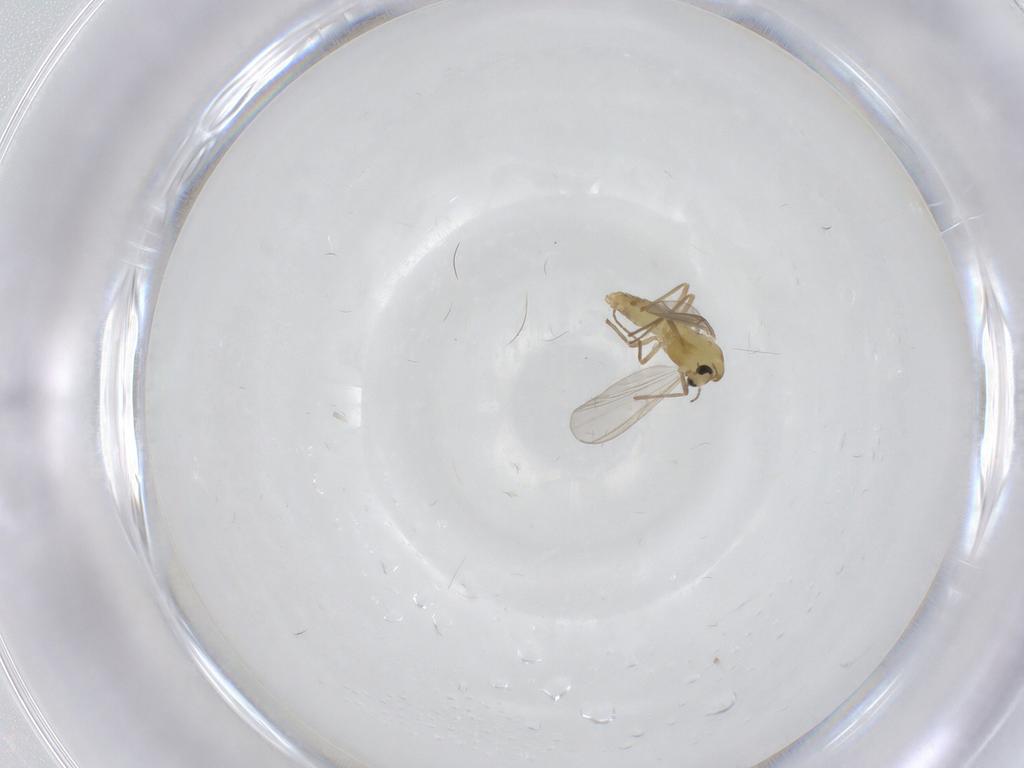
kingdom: Animalia
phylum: Arthropoda
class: Insecta
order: Diptera
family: Chironomidae
